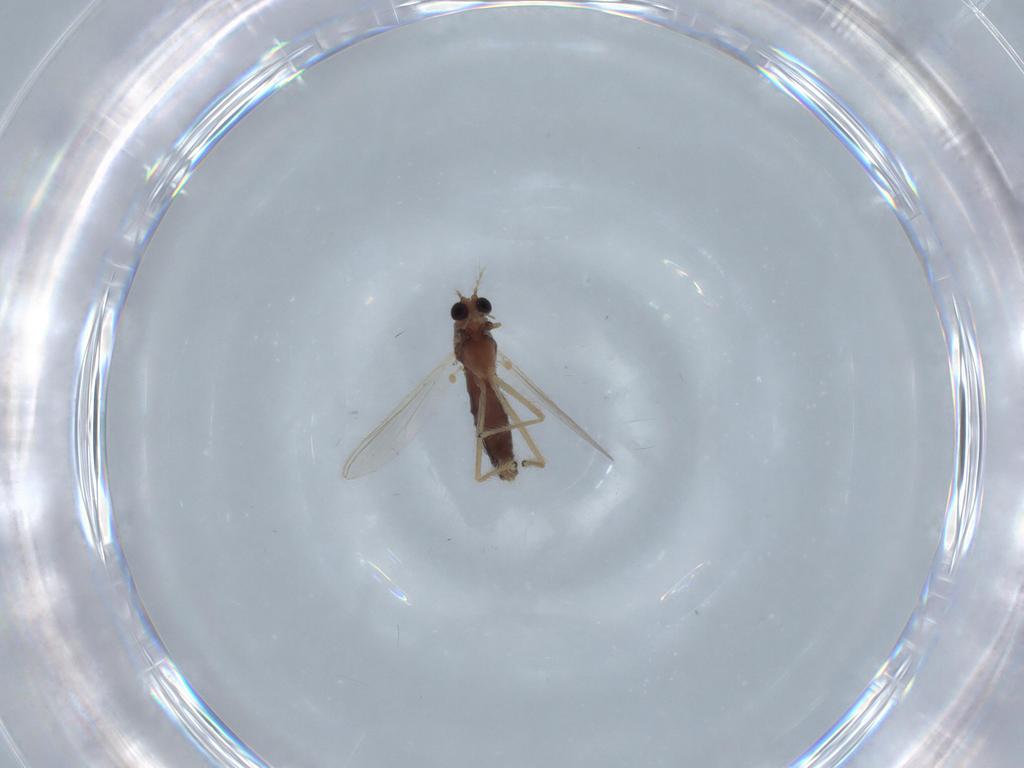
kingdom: Animalia
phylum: Arthropoda
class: Insecta
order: Diptera
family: Chironomidae
